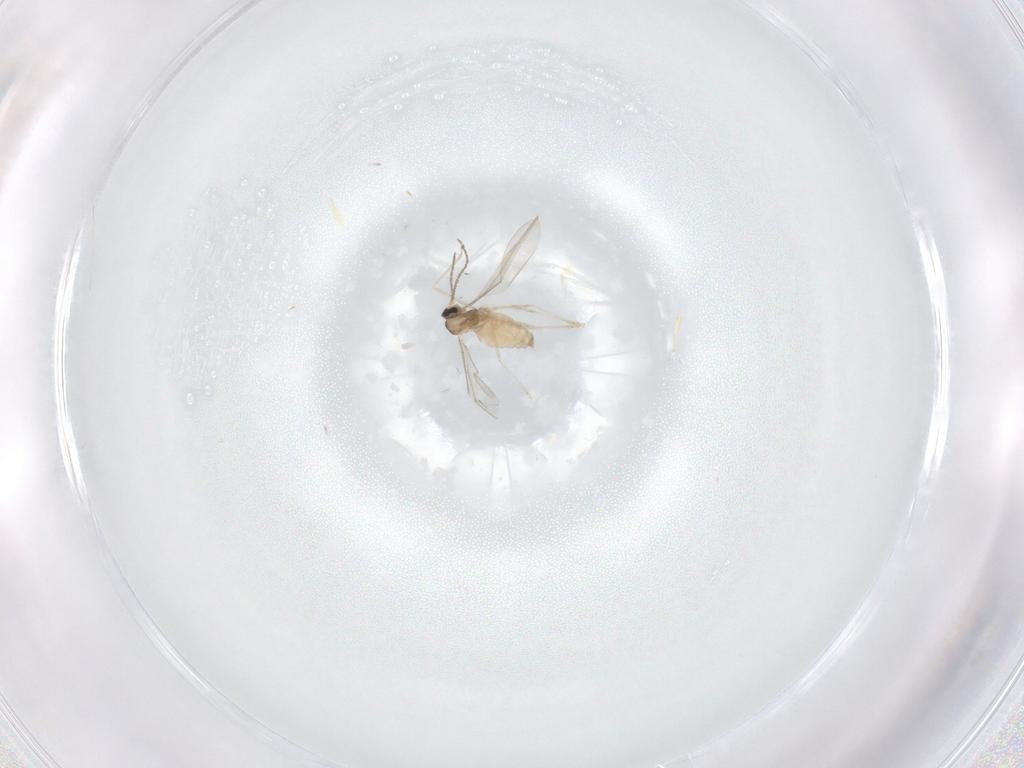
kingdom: Animalia
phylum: Arthropoda
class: Insecta
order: Diptera
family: Cecidomyiidae
